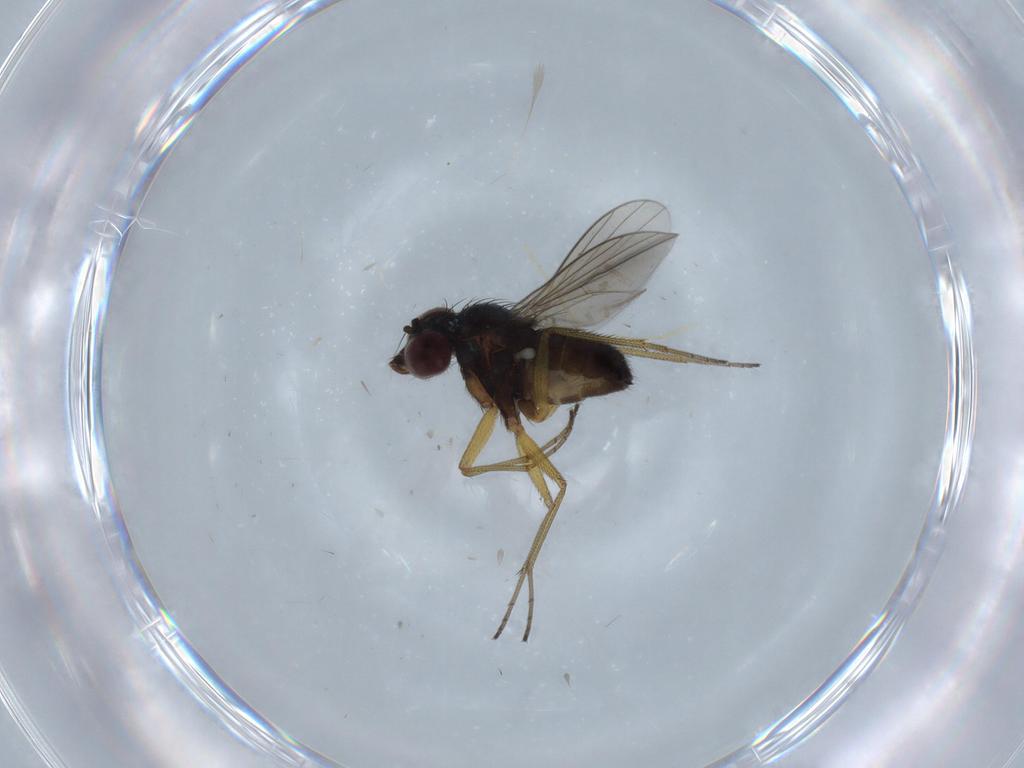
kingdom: Animalia
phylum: Arthropoda
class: Insecta
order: Diptera
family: Dolichopodidae
